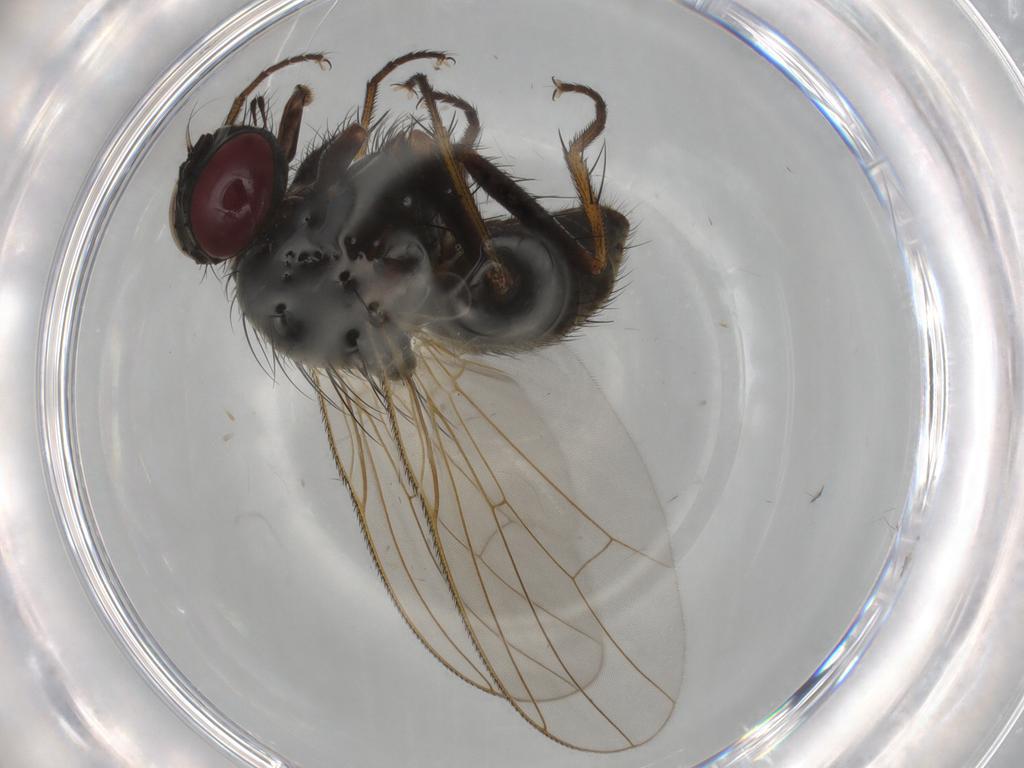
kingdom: Animalia
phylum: Arthropoda
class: Insecta
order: Diptera
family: Muscidae
